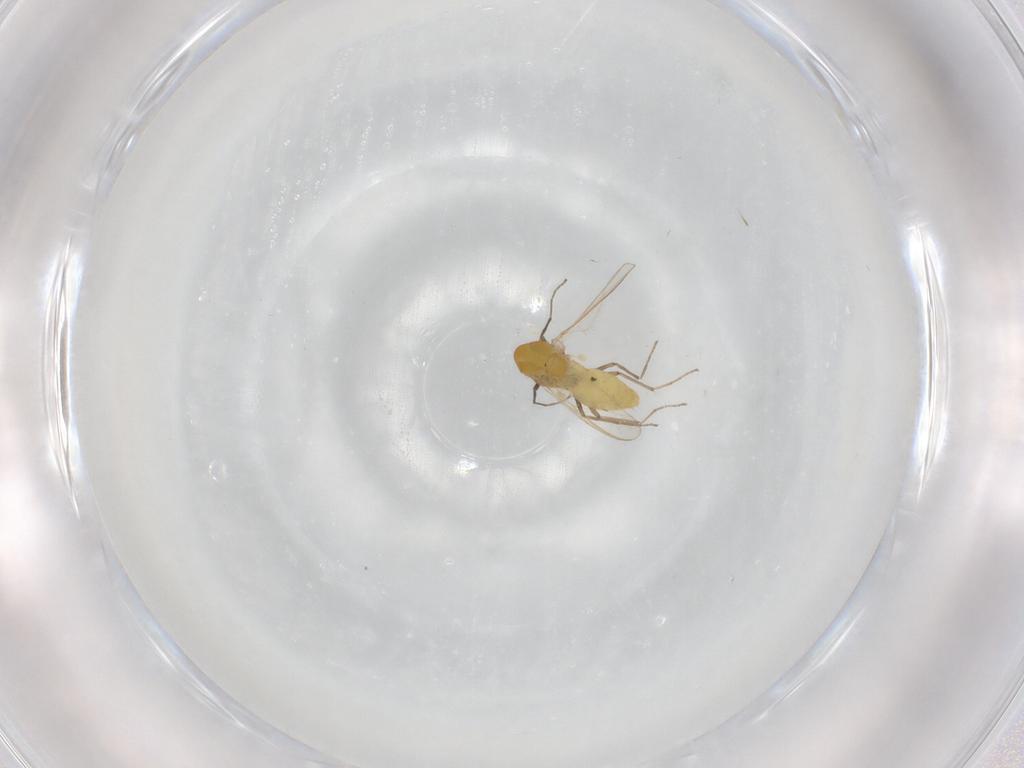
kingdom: Animalia
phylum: Arthropoda
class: Insecta
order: Diptera
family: Chironomidae
